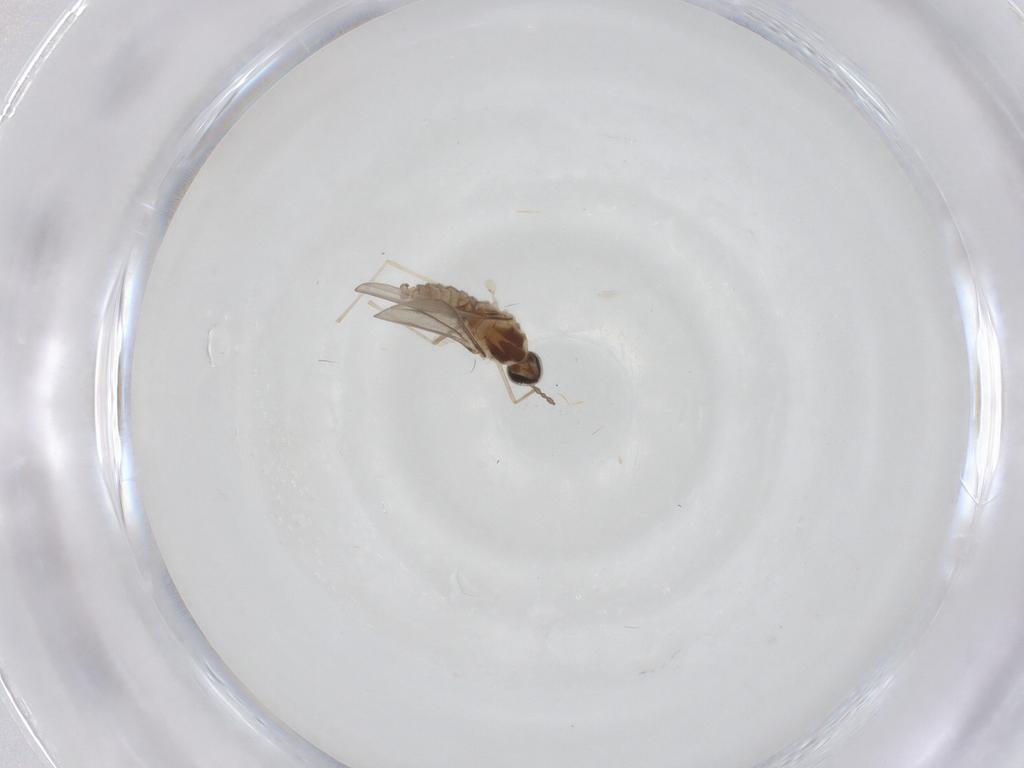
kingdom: Animalia
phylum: Arthropoda
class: Insecta
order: Diptera
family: Cecidomyiidae
